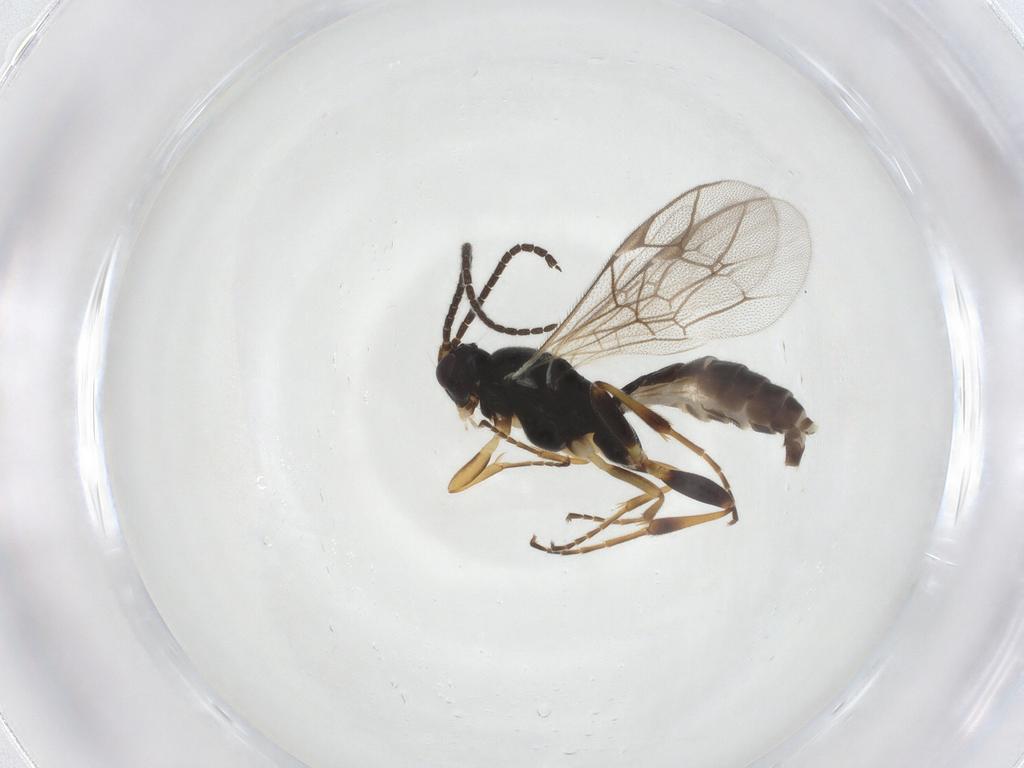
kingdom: Animalia
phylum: Arthropoda
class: Insecta
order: Hymenoptera
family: Ichneumonidae
